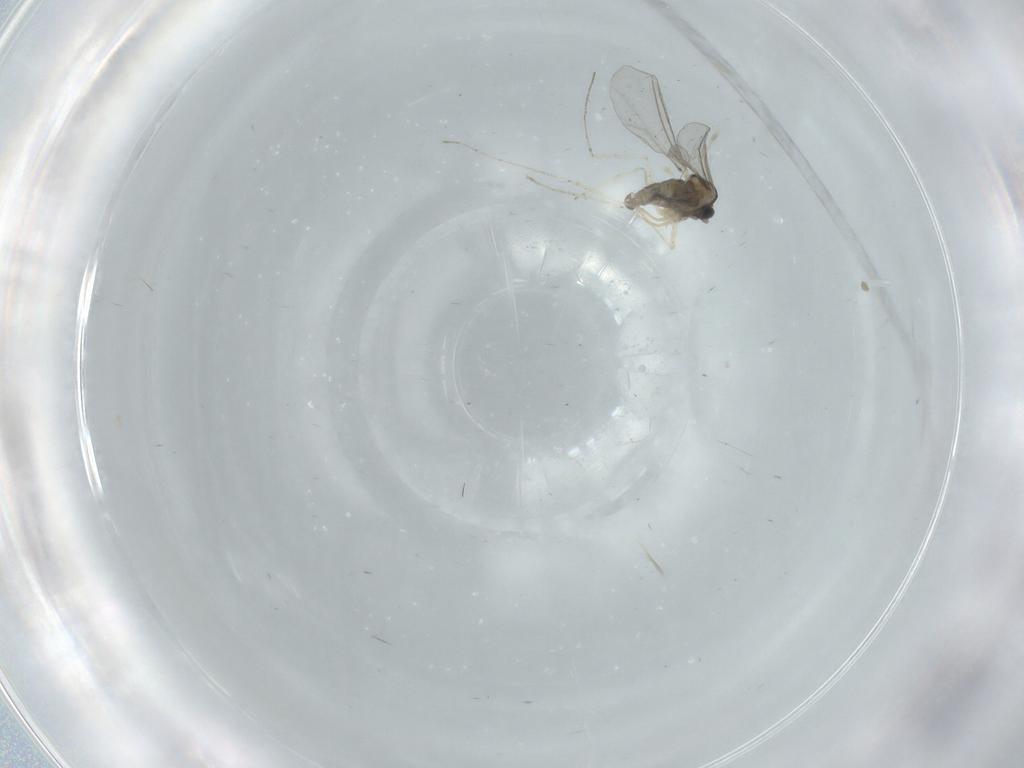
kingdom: Animalia
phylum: Arthropoda
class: Insecta
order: Diptera
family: Cecidomyiidae
